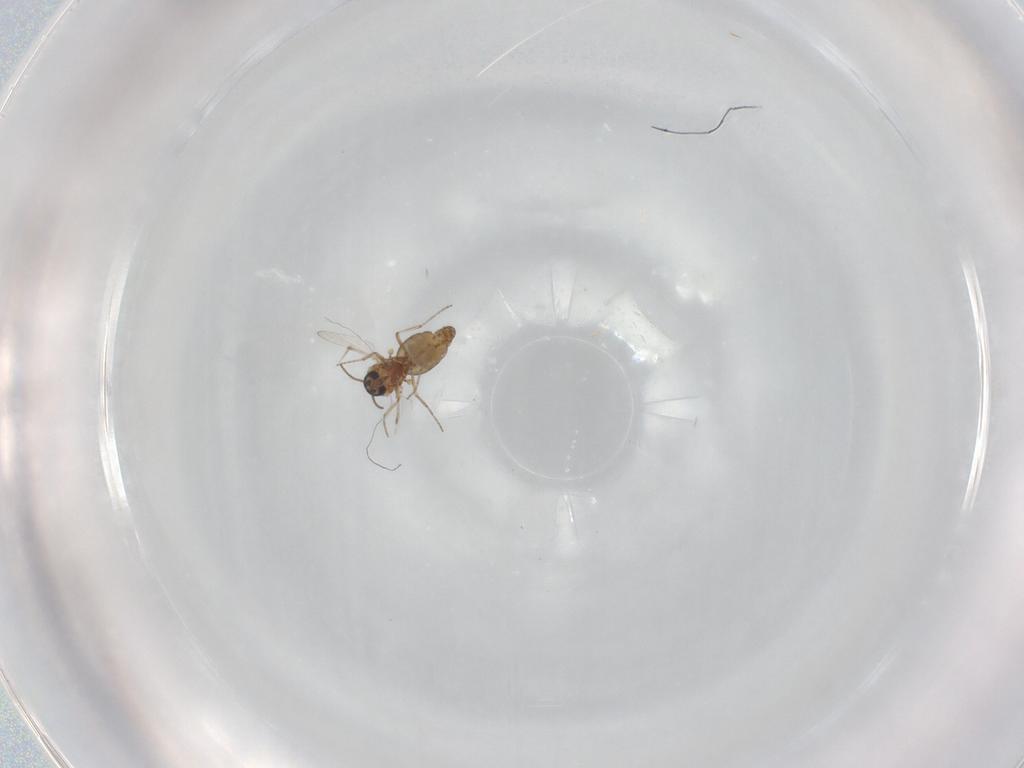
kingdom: Animalia
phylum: Arthropoda
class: Insecta
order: Diptera
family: Ceratopogonidae
